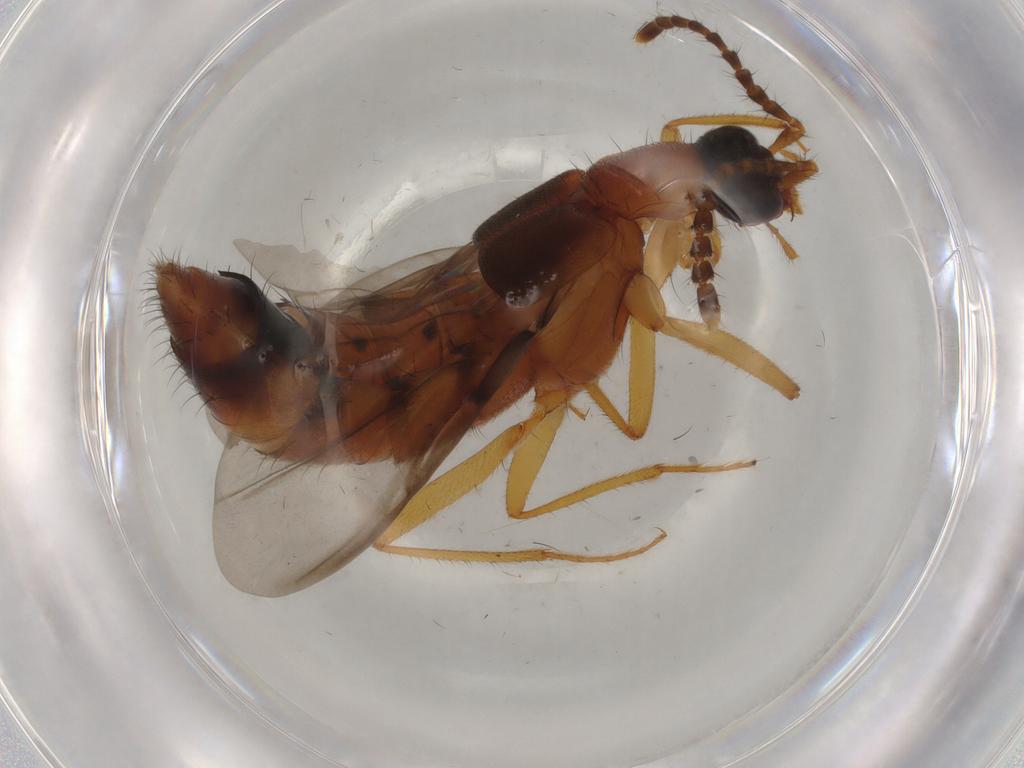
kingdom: Animalia
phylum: Arthropoda
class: Insecta
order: Coleoptera
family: Staphylinidae
